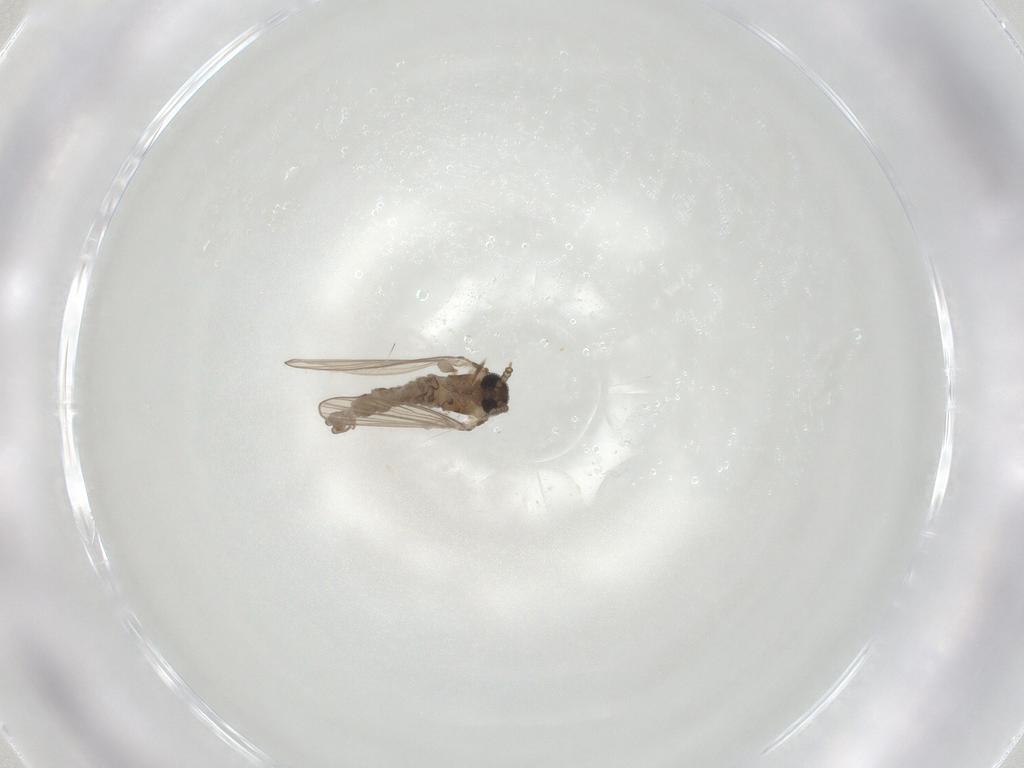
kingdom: Animalia
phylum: Arthropoda
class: Insecta
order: Diptera
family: Psychodidae
